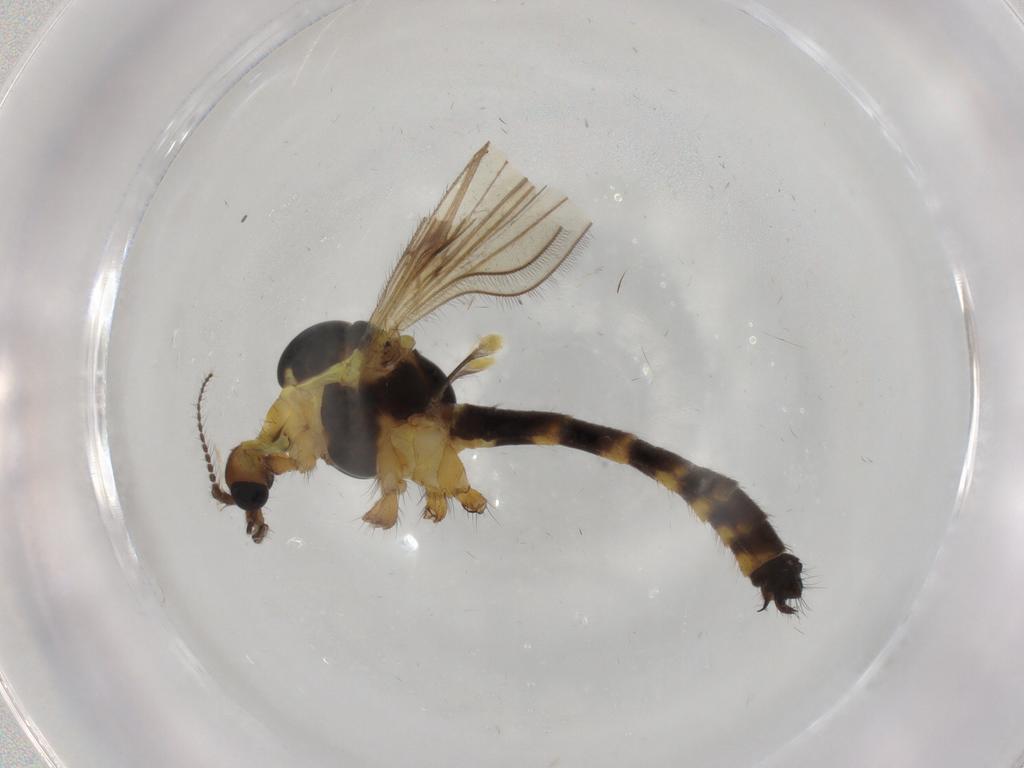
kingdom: Animalia
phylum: Arthropoda
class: Insecta
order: Diptera
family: Limoniidae
